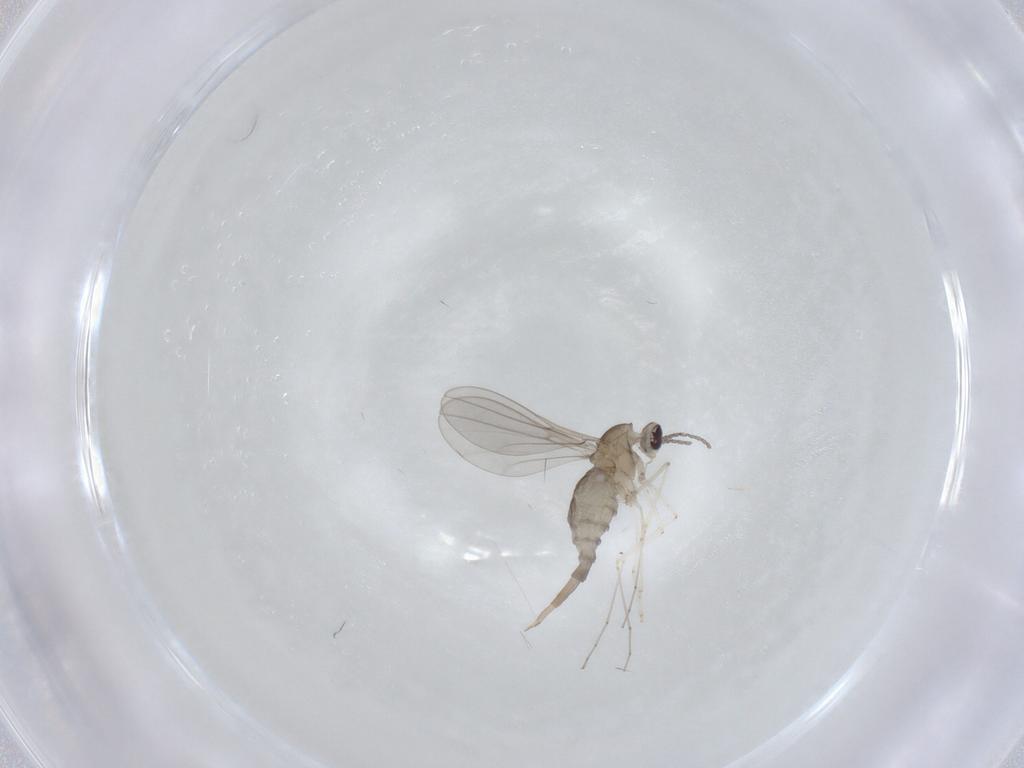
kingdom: Animalia
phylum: Arthropoda
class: Insecta
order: Diptera
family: Cecidomyiidae
